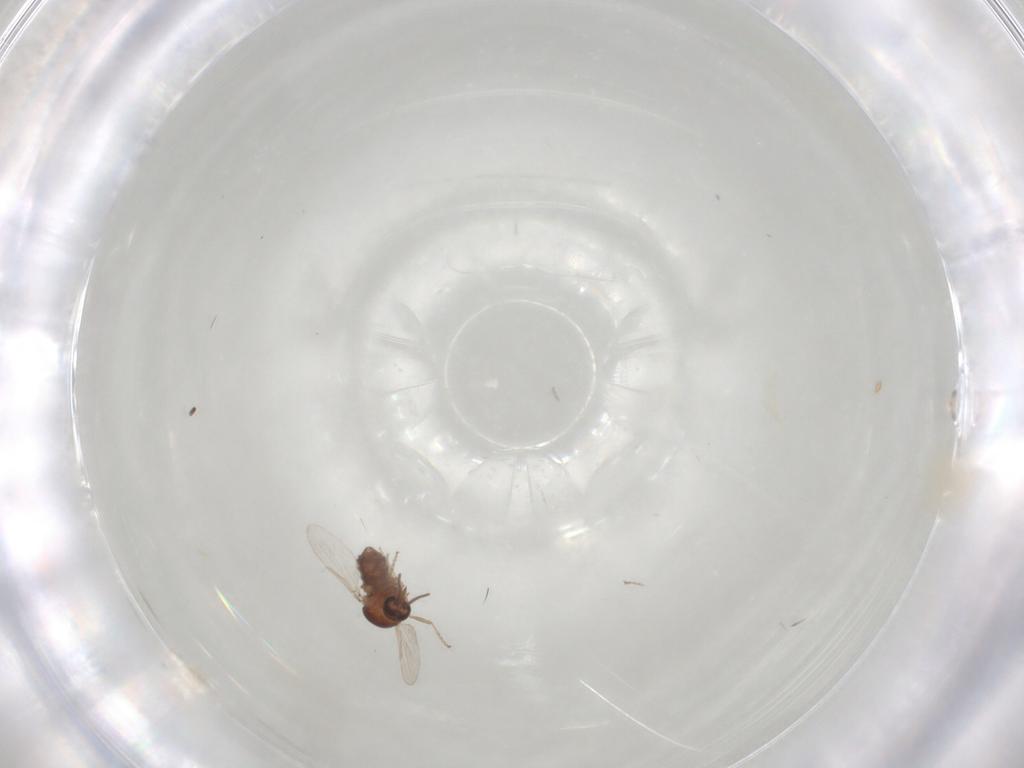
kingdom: Animalia
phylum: Arthropoda
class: Insecta
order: Diptera
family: Phoridae
